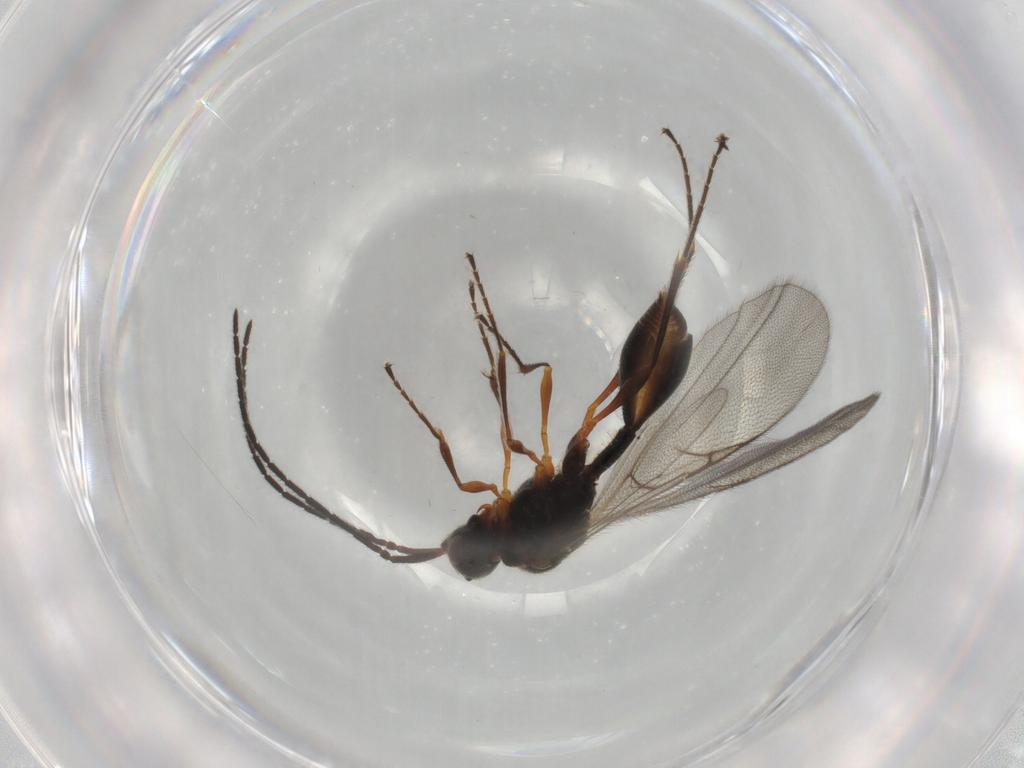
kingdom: Animalia
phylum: Arthropoda
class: Insecta
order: Hymenoptera
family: Diapriidae
